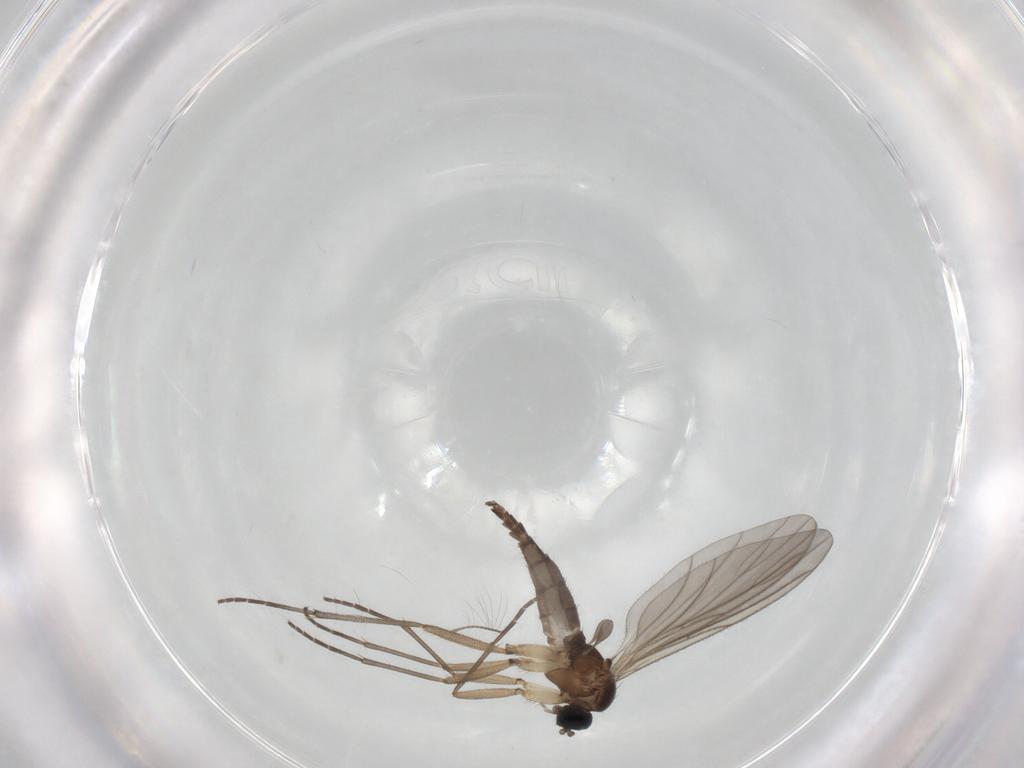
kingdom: Animalia
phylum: Arthropoda
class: Insecta
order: Diptera
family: Sciaridae
